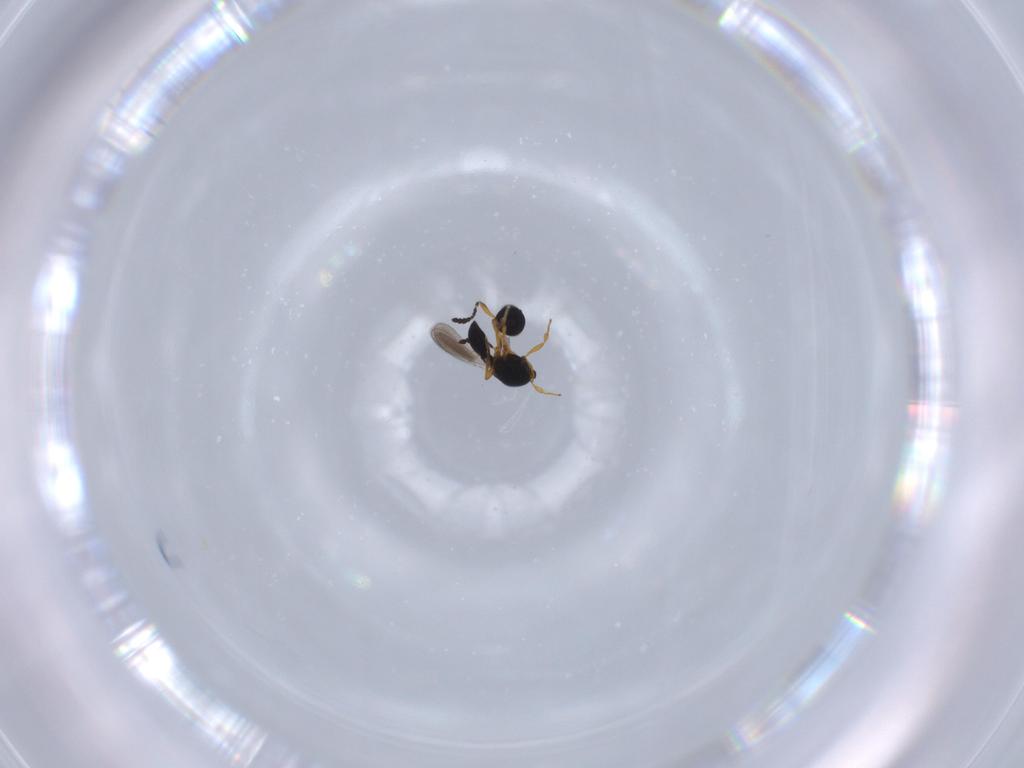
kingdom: Animalia
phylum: Arthropoda
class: Insecta
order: Hymenoptera
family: Platygastridae
